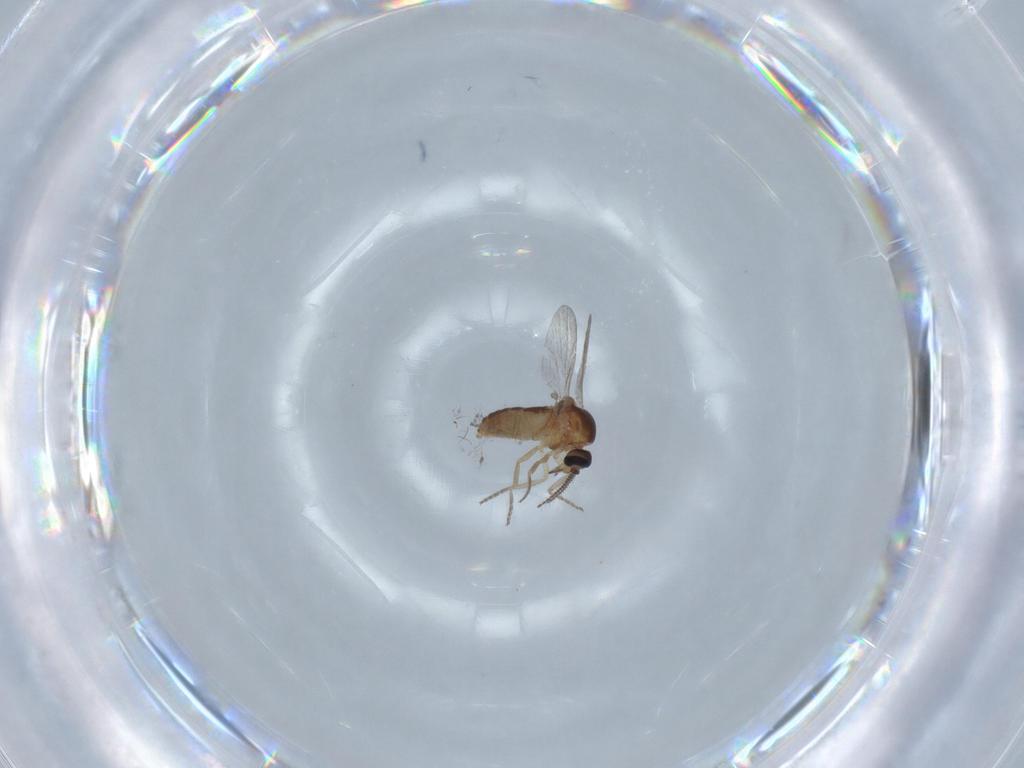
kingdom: Animalia
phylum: Arthropoda
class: Insecta
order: Diptera
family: Ceratopogonidae
